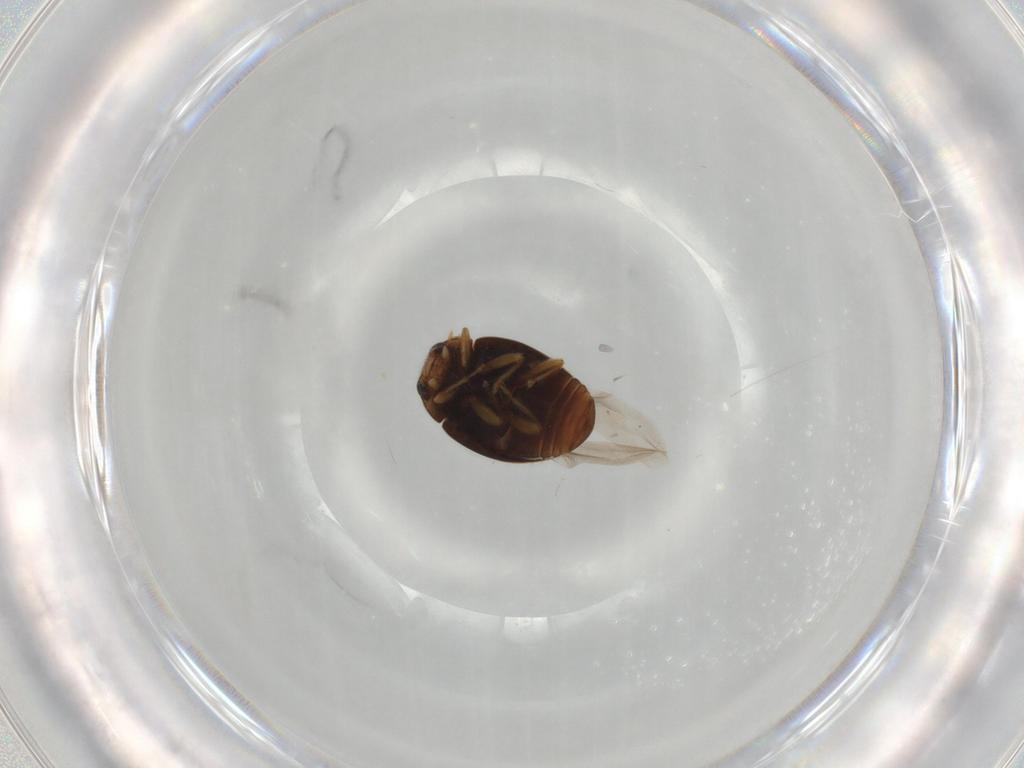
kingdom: Animalia
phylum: Arthropoda
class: Insecta
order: Coleoptera
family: Coccinellidae
